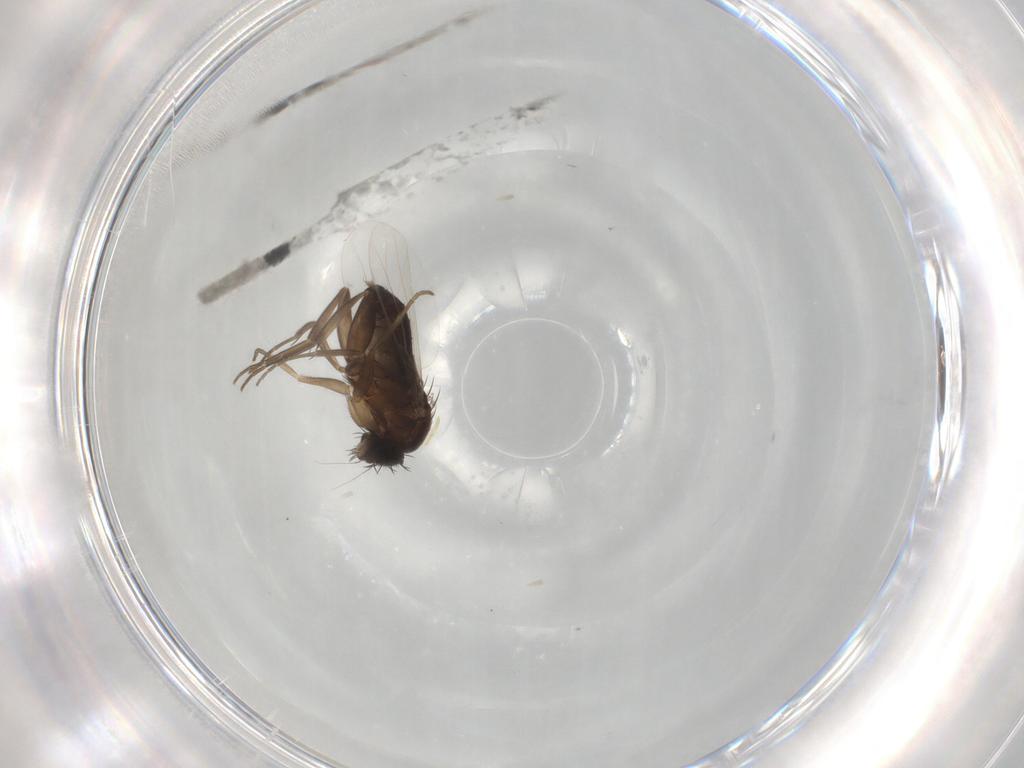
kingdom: Animalia
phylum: Arthropoda
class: Insecta
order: Diptera
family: Phoridae
